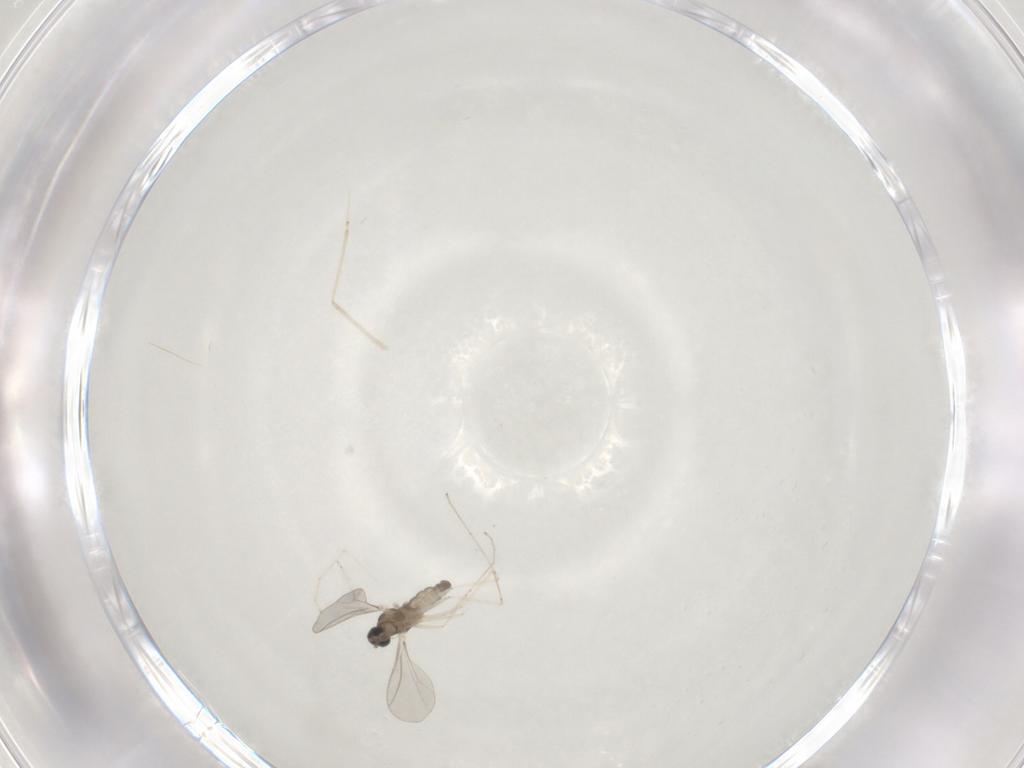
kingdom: Animalia
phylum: Arthropoda
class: Insecta
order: Diptera
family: Cecidomyiidae
